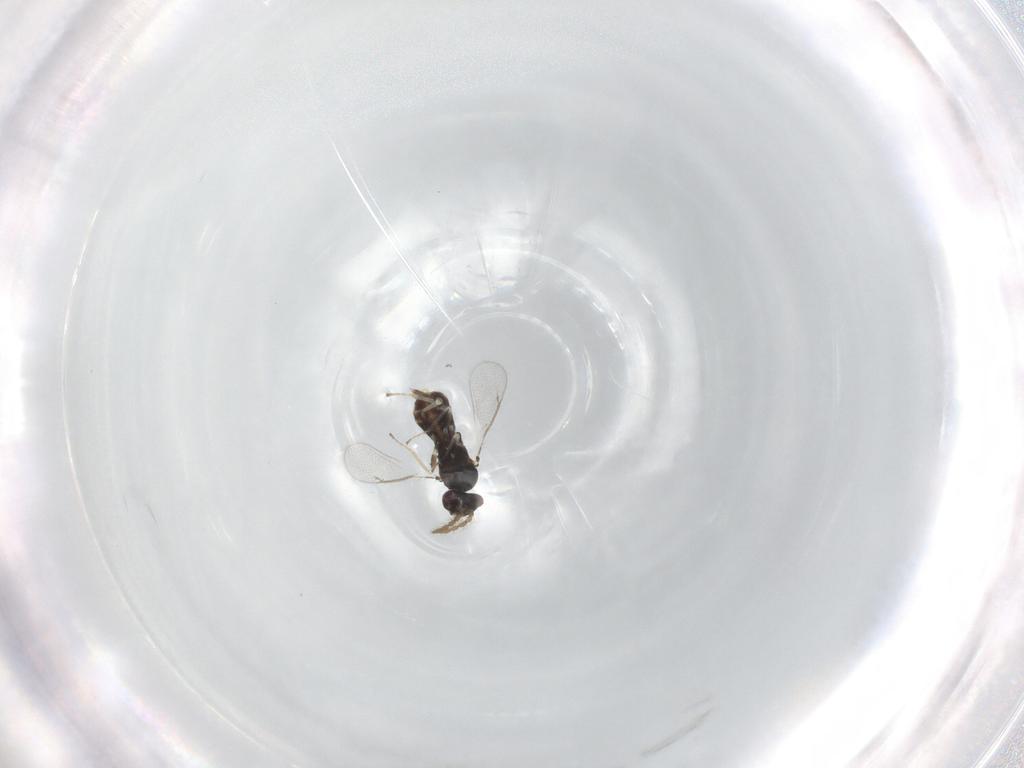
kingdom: Animalia
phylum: Arthropoda
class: Insecta
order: Hymenoptera
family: Eulophidae
